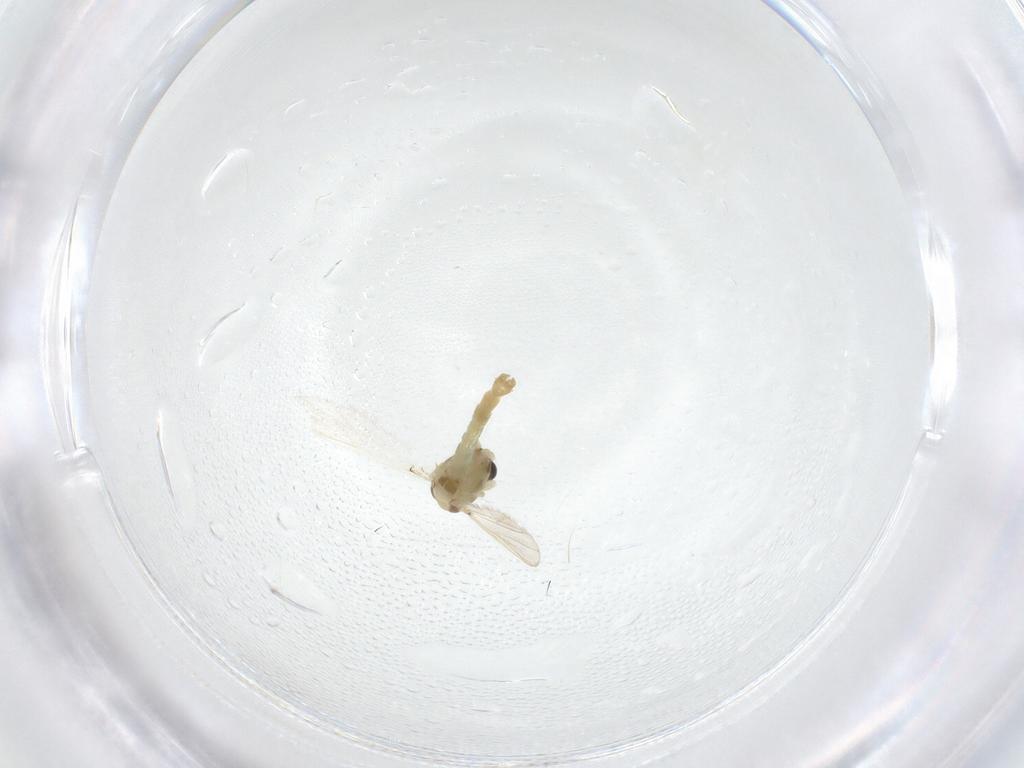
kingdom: Animalia
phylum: Arthropoda
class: Insecta
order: Diptera
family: Chironomidae
